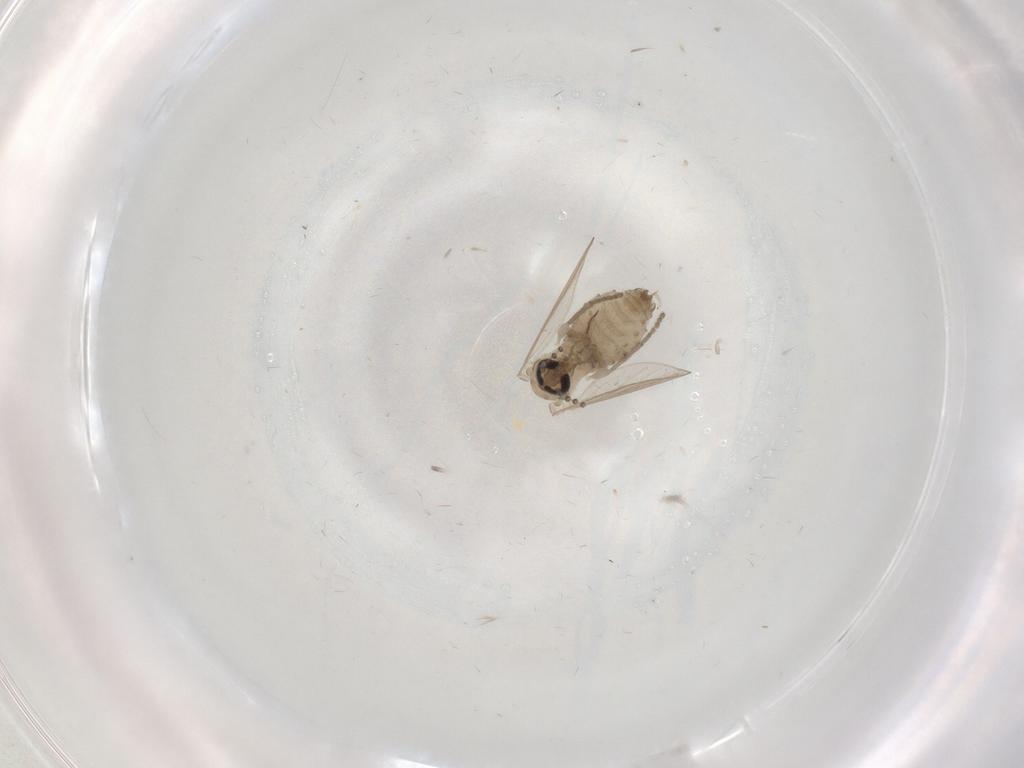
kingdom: Animalia
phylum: Arthropoda
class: Insecta
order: Diptera
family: Psychodidae
